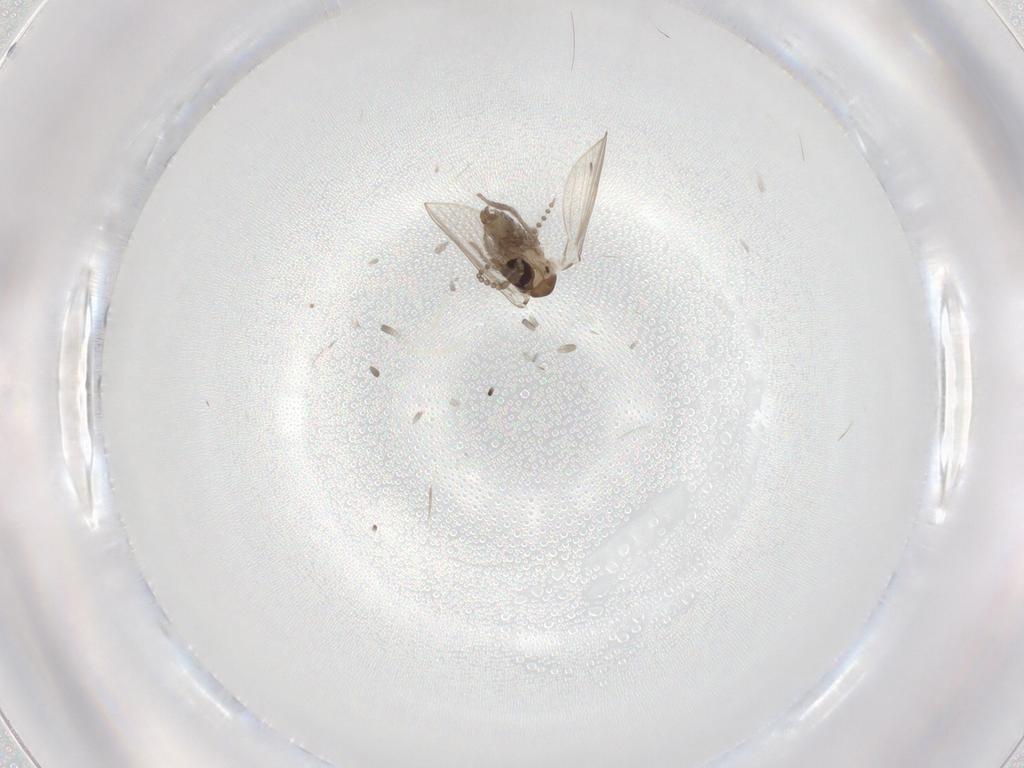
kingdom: Animalia
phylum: Arthropoda
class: Insecta
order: Diptera
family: Psychodidae
